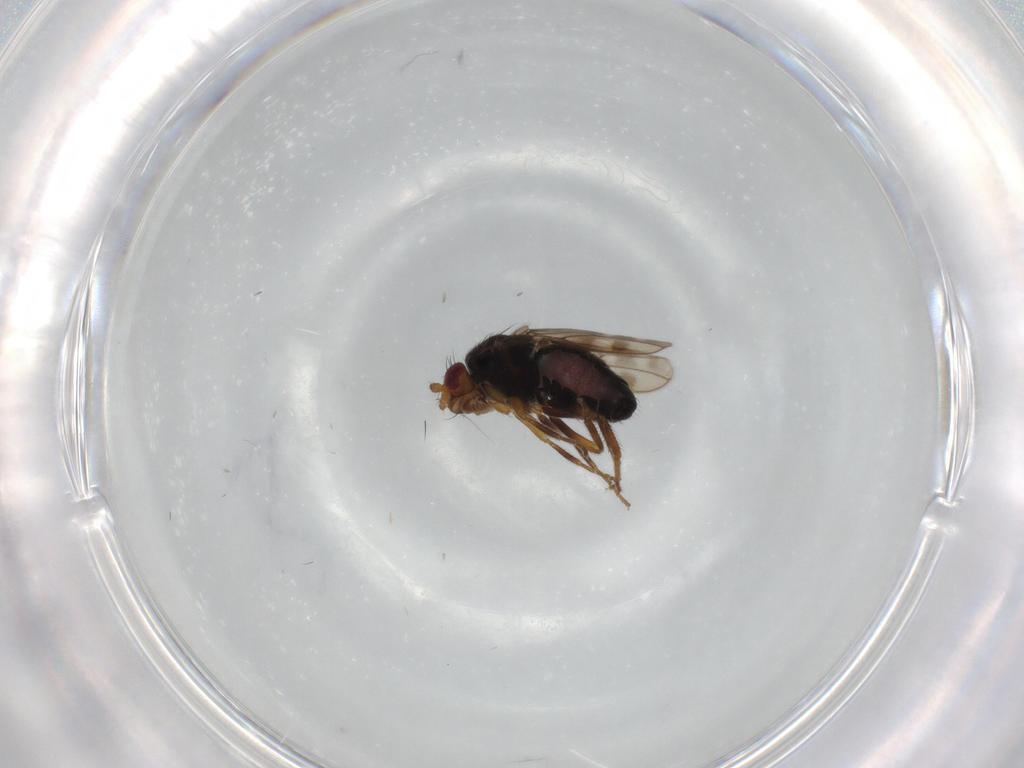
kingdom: Animalia
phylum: Arthropoda
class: Insecta
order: Diptera
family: Sphaeroceridae
